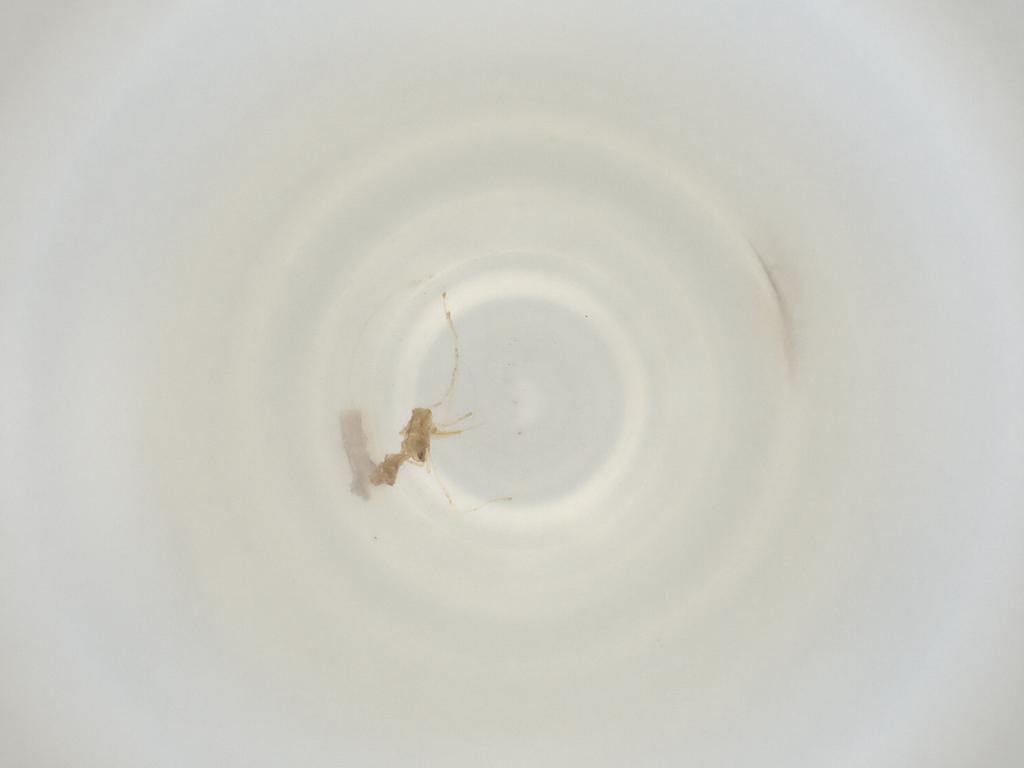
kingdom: Animalia
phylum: Arthropoda
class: Insecta
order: Diptera
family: Cecidomyiidae
